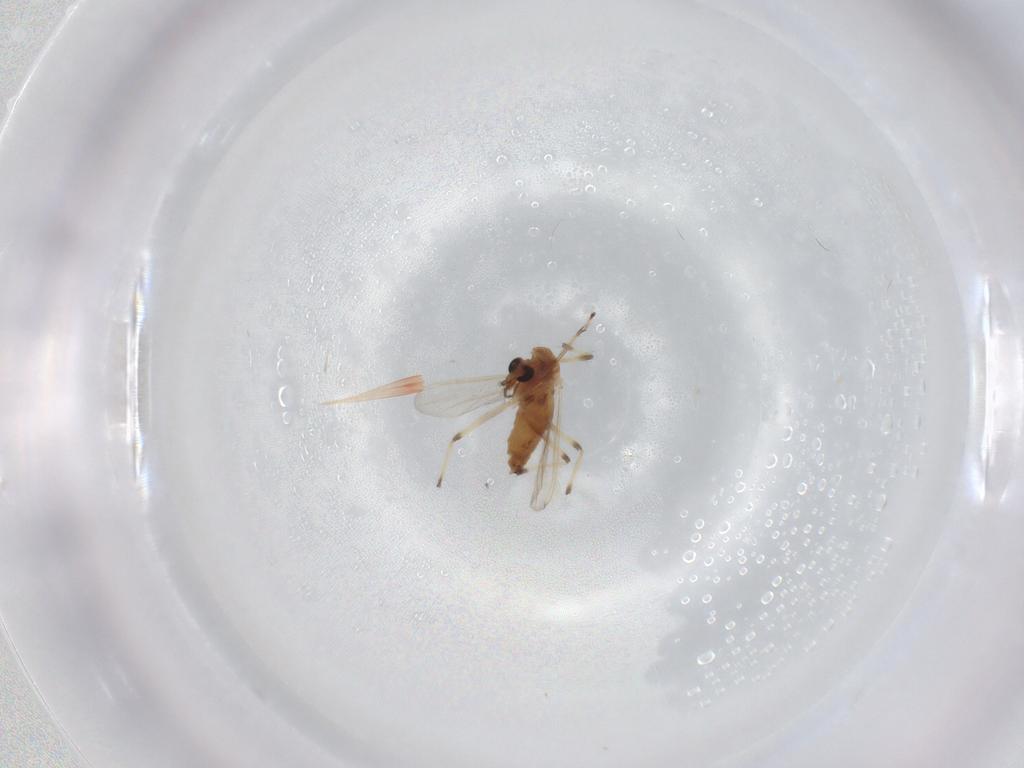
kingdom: Animalia
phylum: Arthropoda
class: Insecta
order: Diptera
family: Chironomidae
